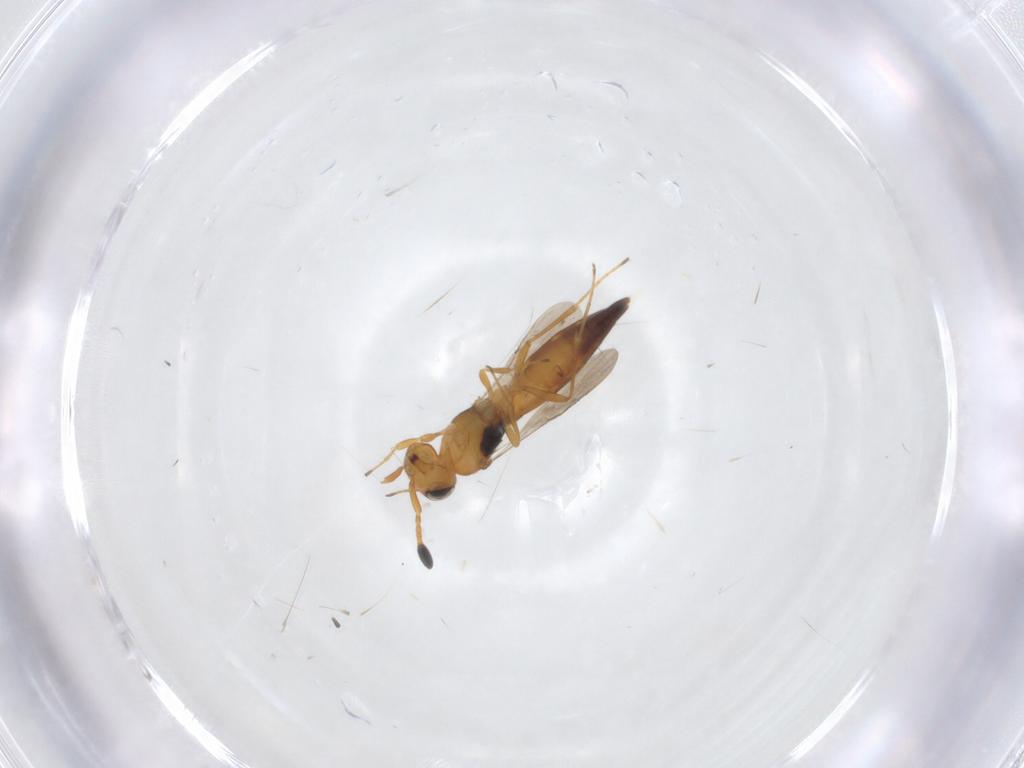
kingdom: Animalia
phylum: Arthropoda
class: Insecta
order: Hymenoptera
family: Scelionidae
